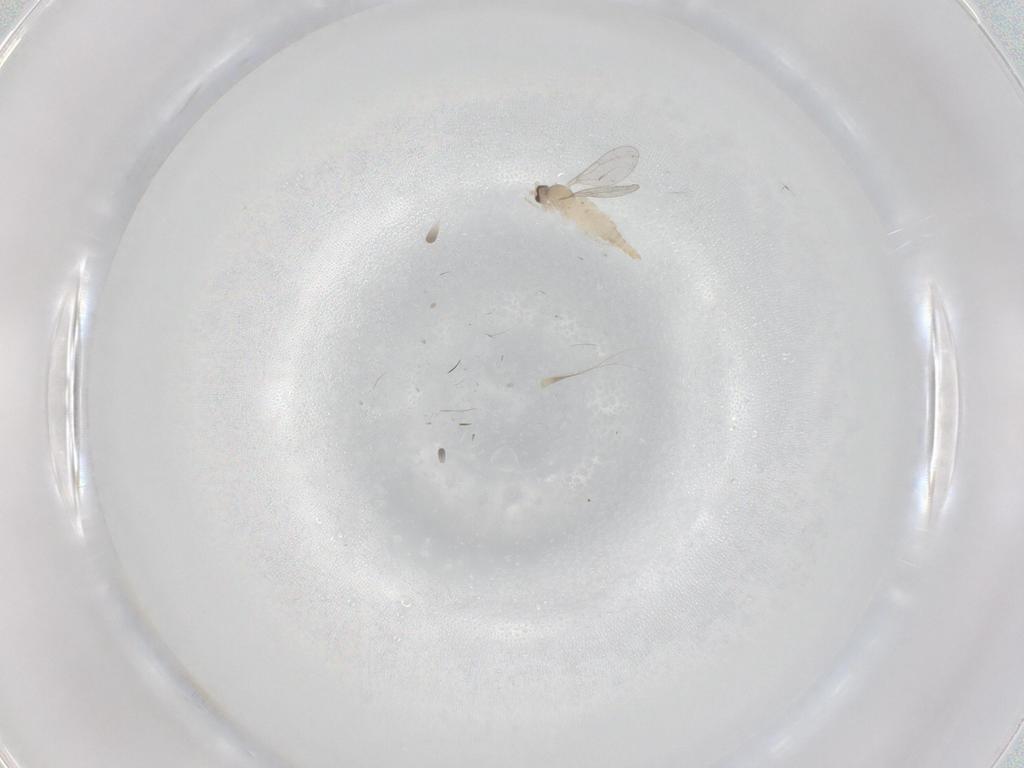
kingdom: Animalia
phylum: Arthropoda
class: Insecta
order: Diptera
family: Cecidomyiidae
